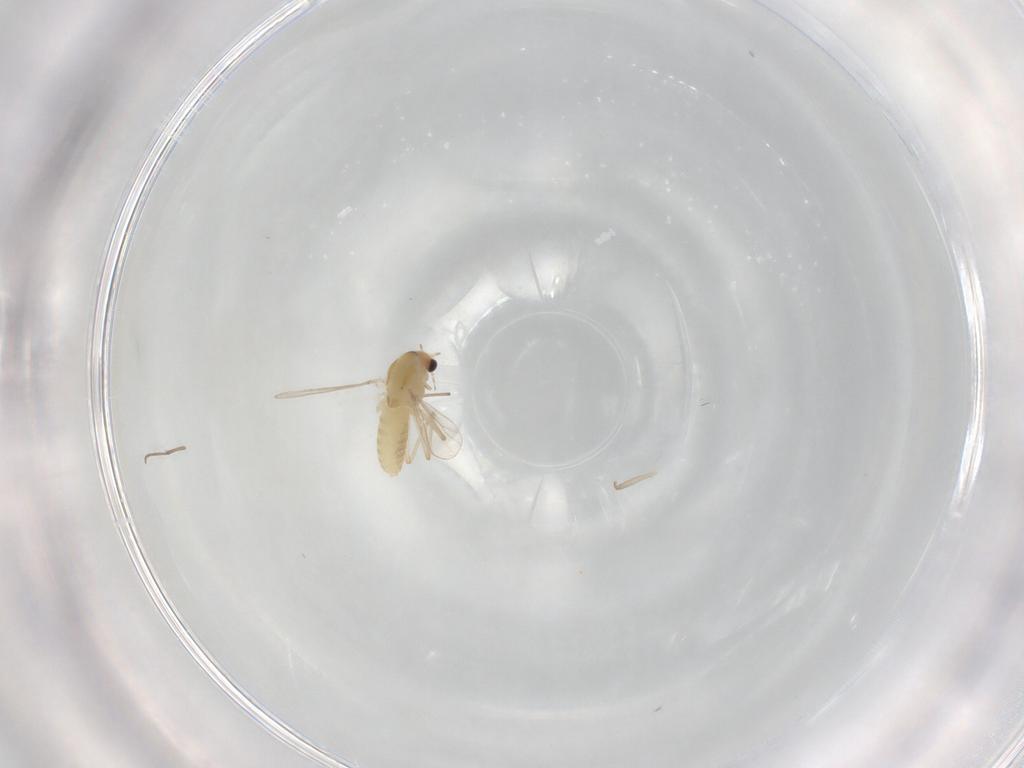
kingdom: Animalia
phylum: Arthropoda
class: Insecta
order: Diptera
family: Chironomidae
